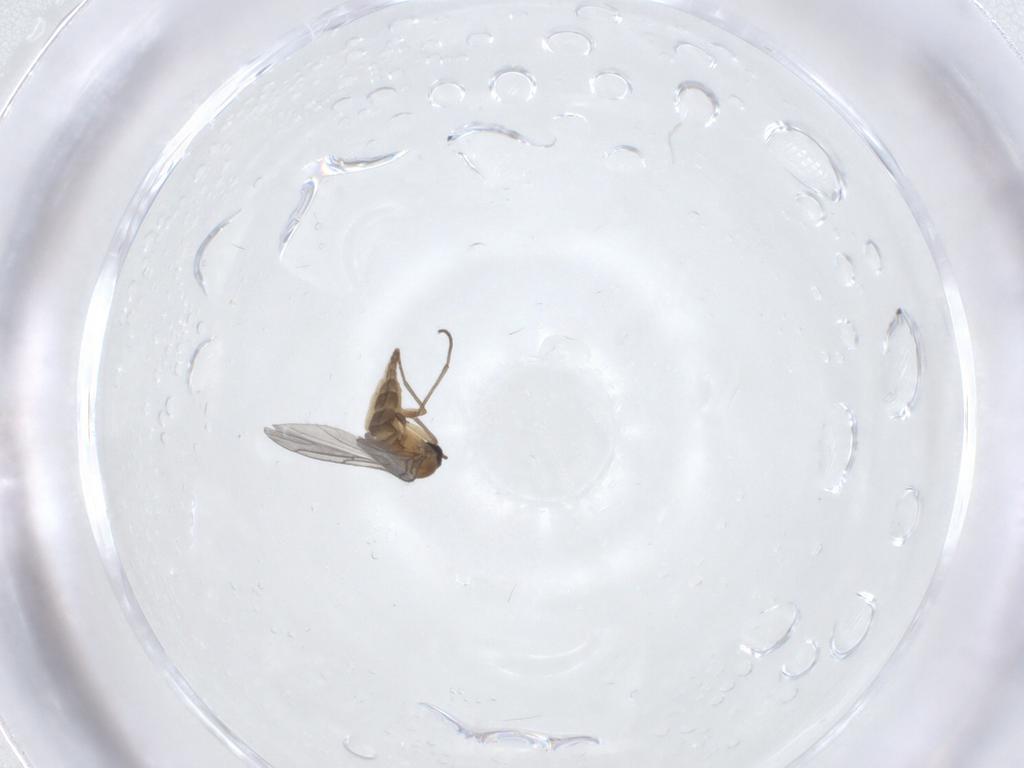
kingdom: Animalia
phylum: Arthropoda
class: Insecta
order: Diptera
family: Sciaridae
